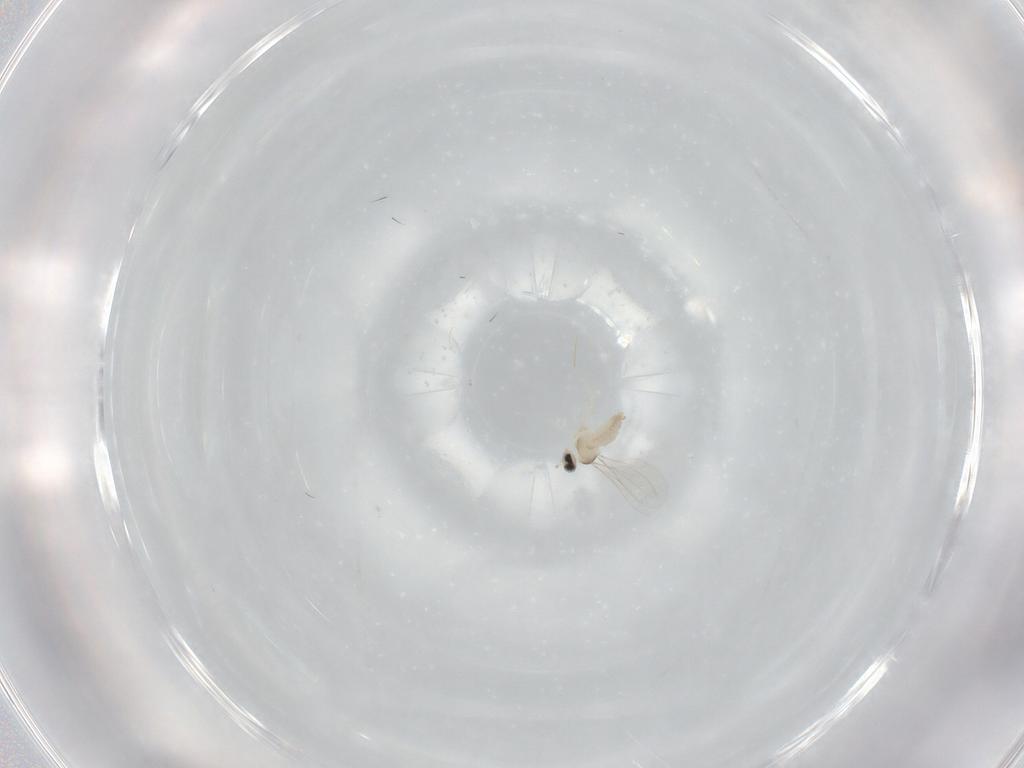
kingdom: Animalia
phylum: Arthropoda
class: Insecta
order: Diptera
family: Cecidomyiidae
